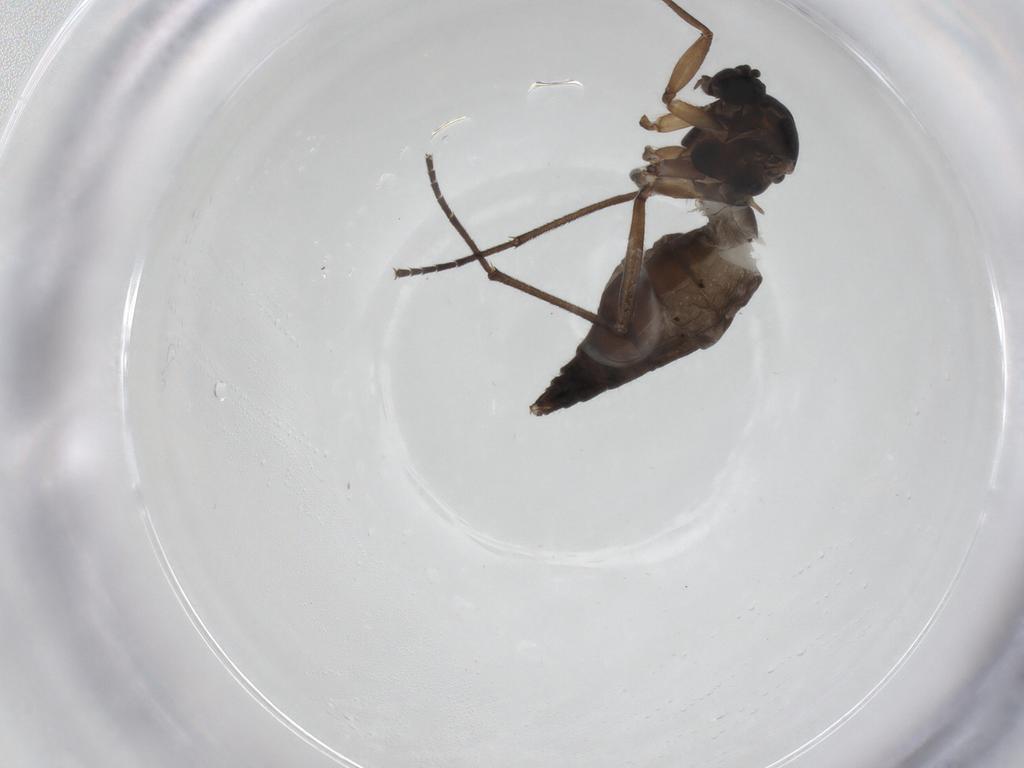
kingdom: Animalia
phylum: Arthropoda
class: Insecta
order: Diptera
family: Sciaridae
